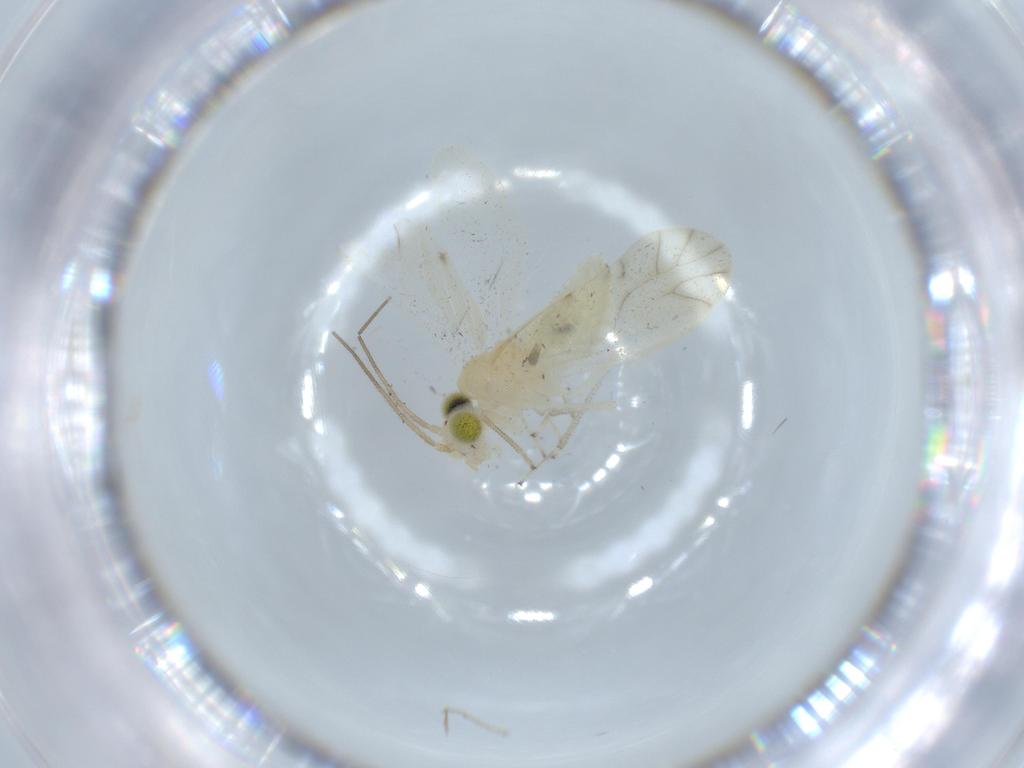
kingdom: Animalia
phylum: Arthropoda
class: Insecta
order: Psocodea
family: Caeciliusidae
